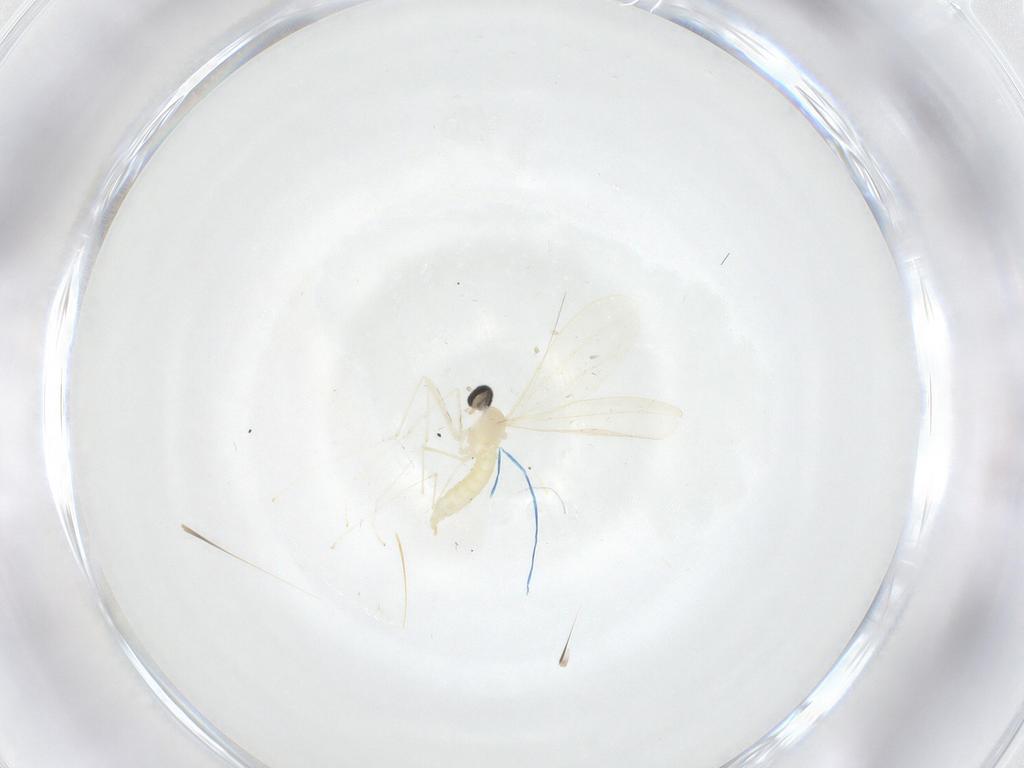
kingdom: Animalia
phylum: Arthropoda
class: Insecta
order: Diptera
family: Cecidomyiidae
